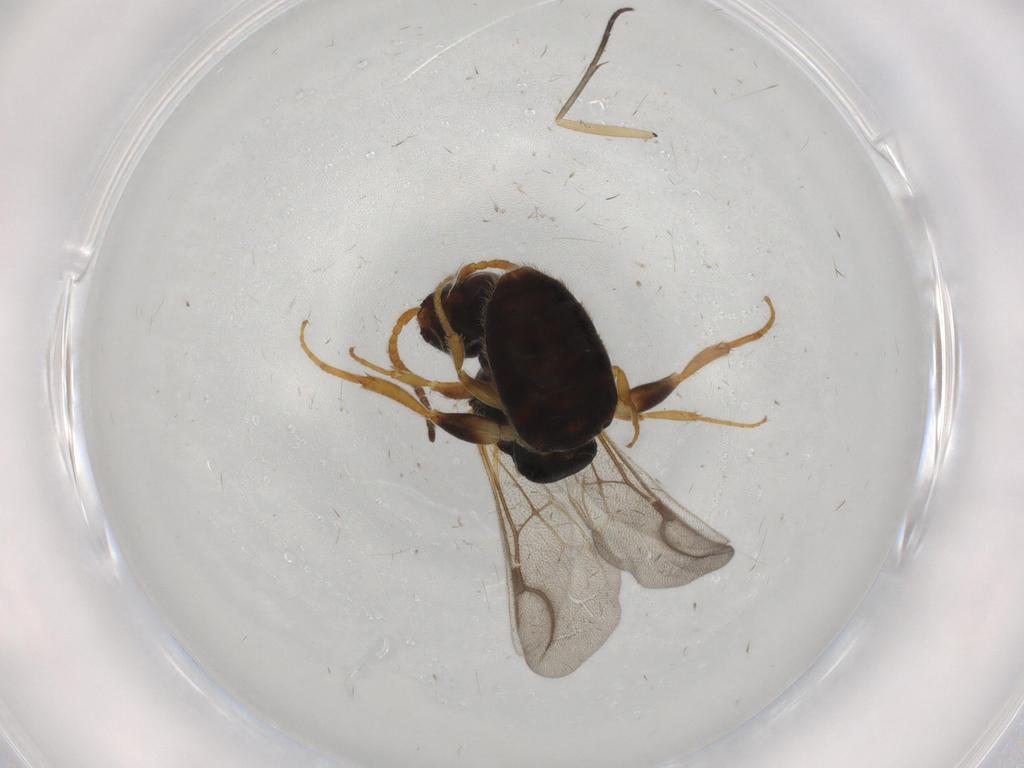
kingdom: Animalia
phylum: Arthropoda
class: Insecta
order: Hymenoptera
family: Bethylidae
